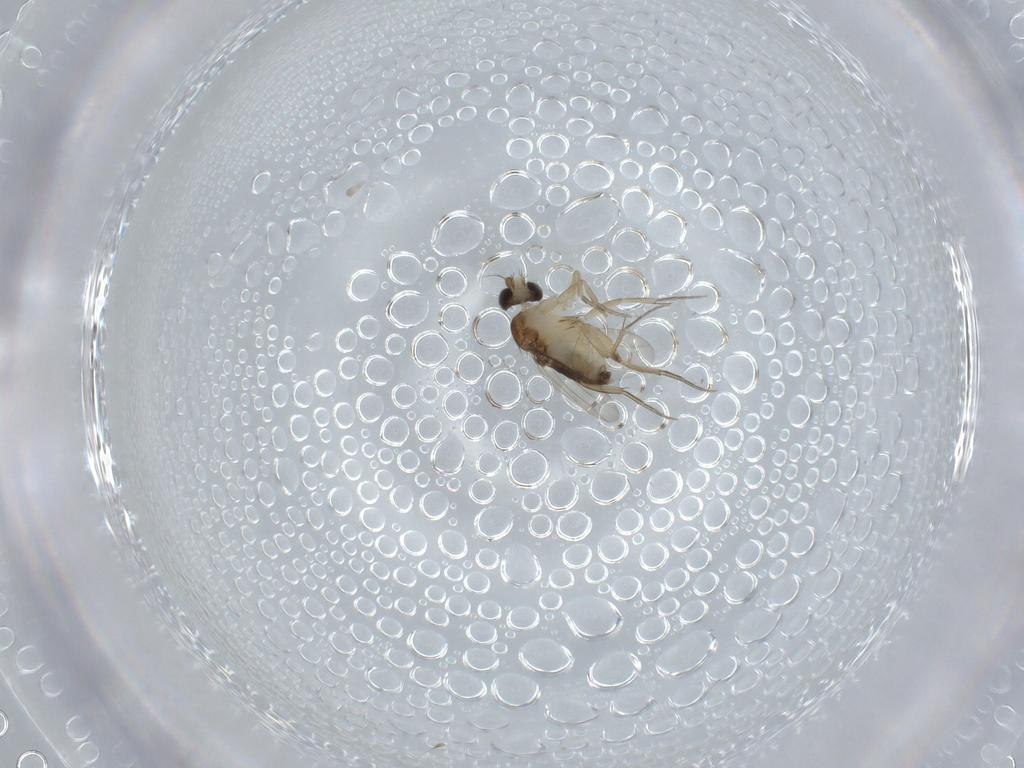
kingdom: Animalia
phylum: Arthropoda
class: Insecta
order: Diptera
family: Phoridae
